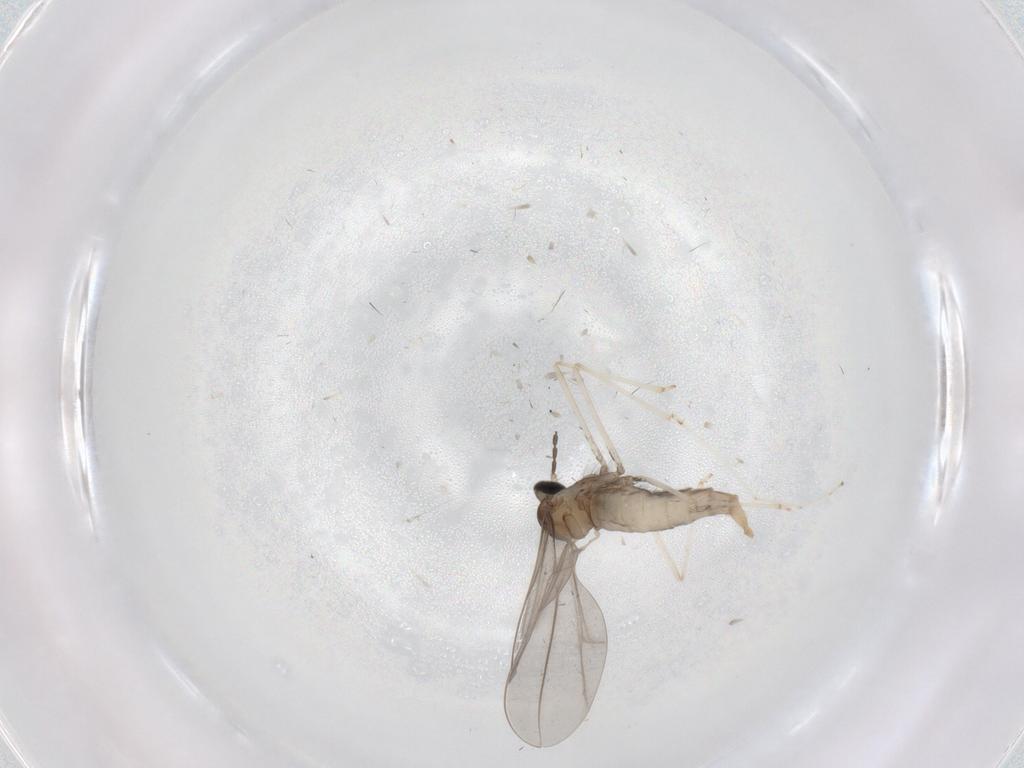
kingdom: Animalia
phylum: Arthropoda
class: Insecta
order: Diptera
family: Cecidomyiidae
